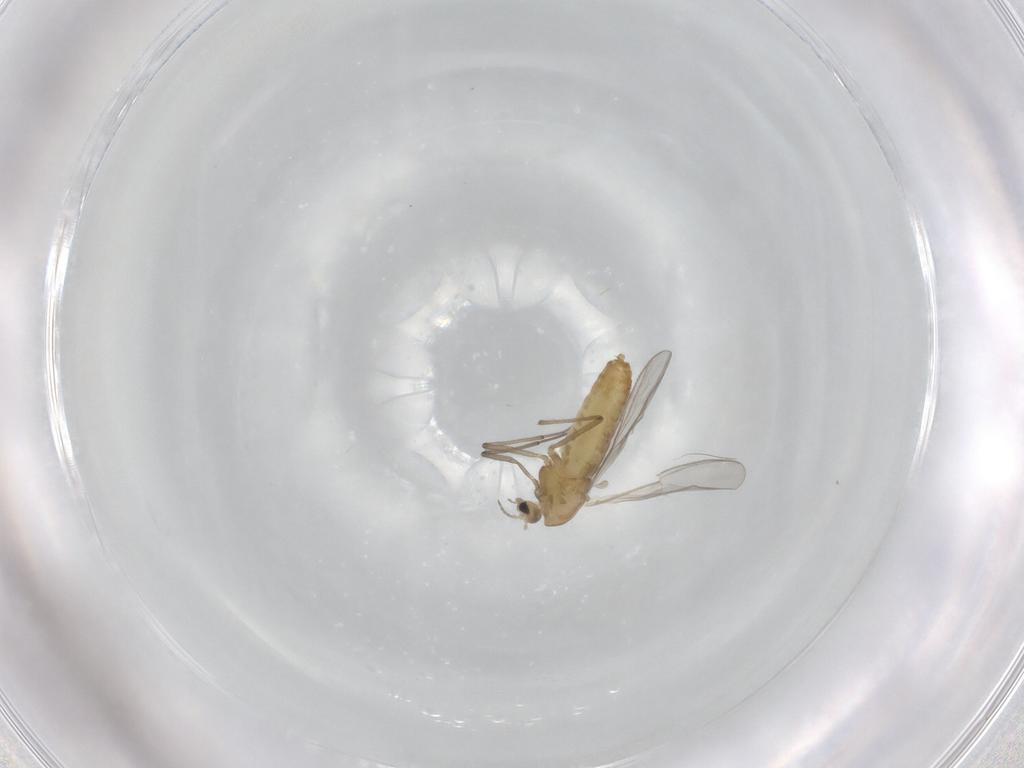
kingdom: Animalia
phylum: Arthropoda
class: Insecta
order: Diptera
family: Chironomidae
